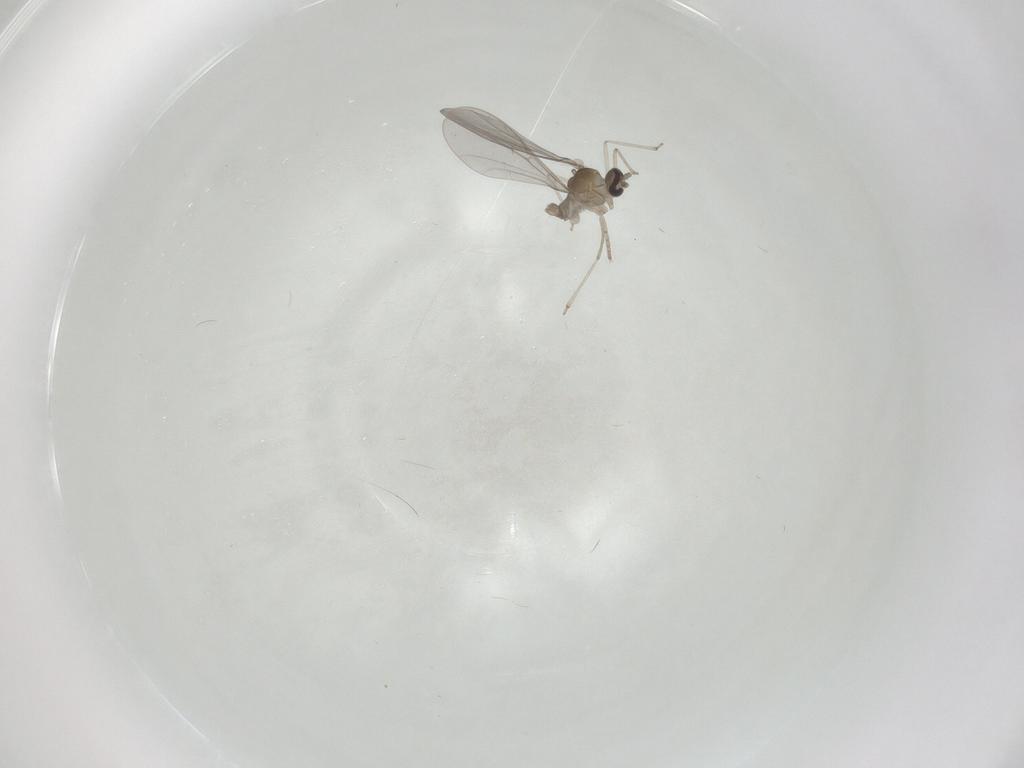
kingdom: Animalia
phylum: Arthropoda
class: Insecta
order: Diptera
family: Cecidomyiidae
